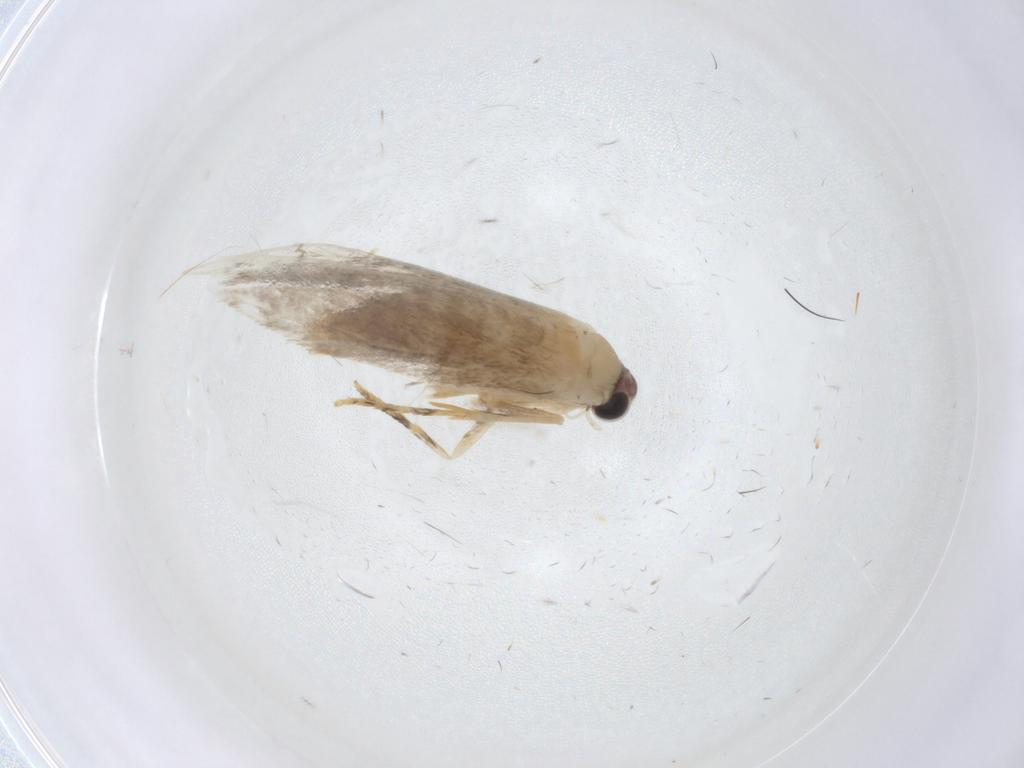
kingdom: Animalia
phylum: Arthropoda
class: Insecta
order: Lepidoptera
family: Tineidae
